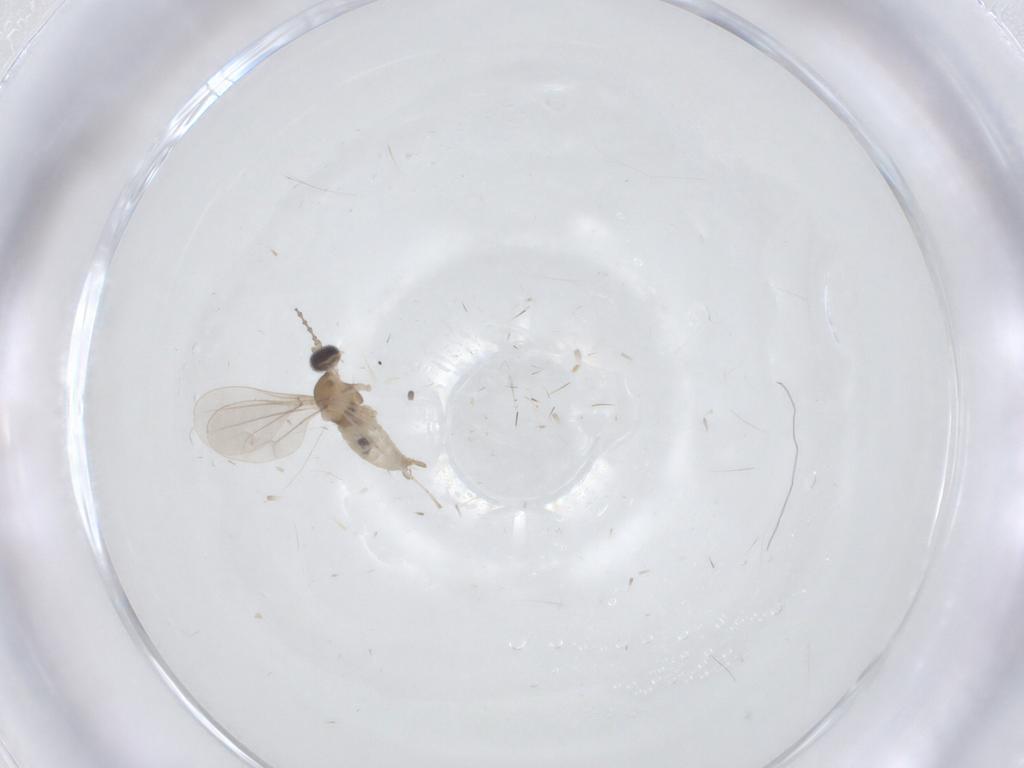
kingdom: Animalia
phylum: Arthropoda
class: Insecta
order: Diptera
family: Cecidomyiidae
